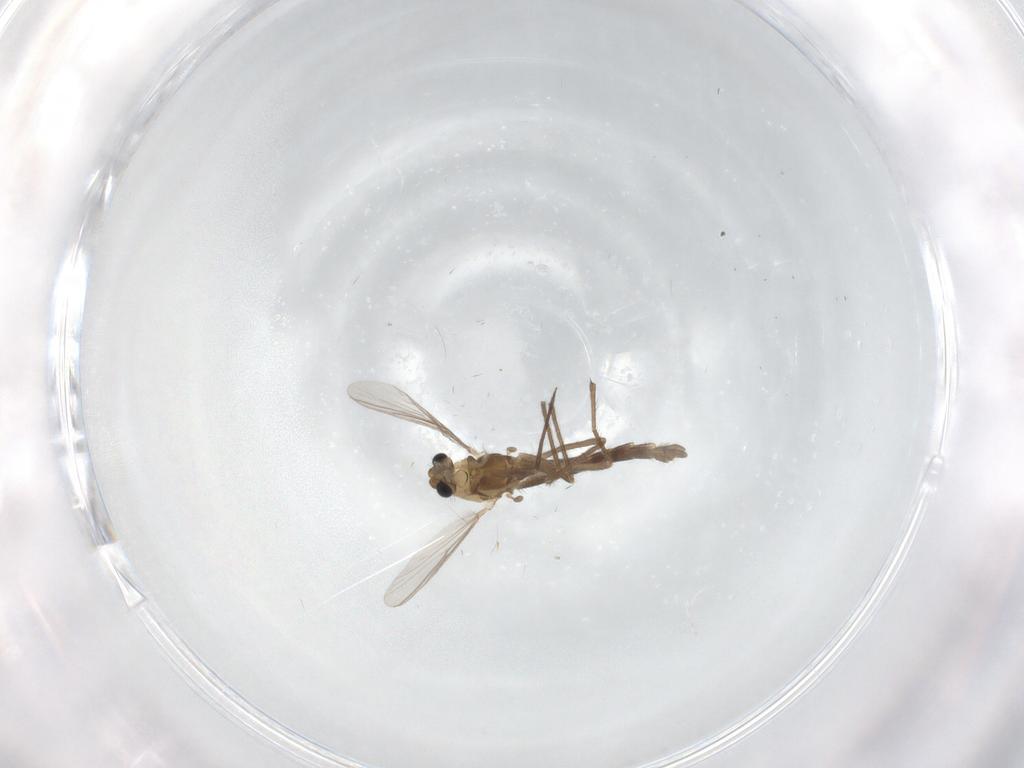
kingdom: Animalia
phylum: Arthropoda
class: Insecta
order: Diptera
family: Chironomidae
